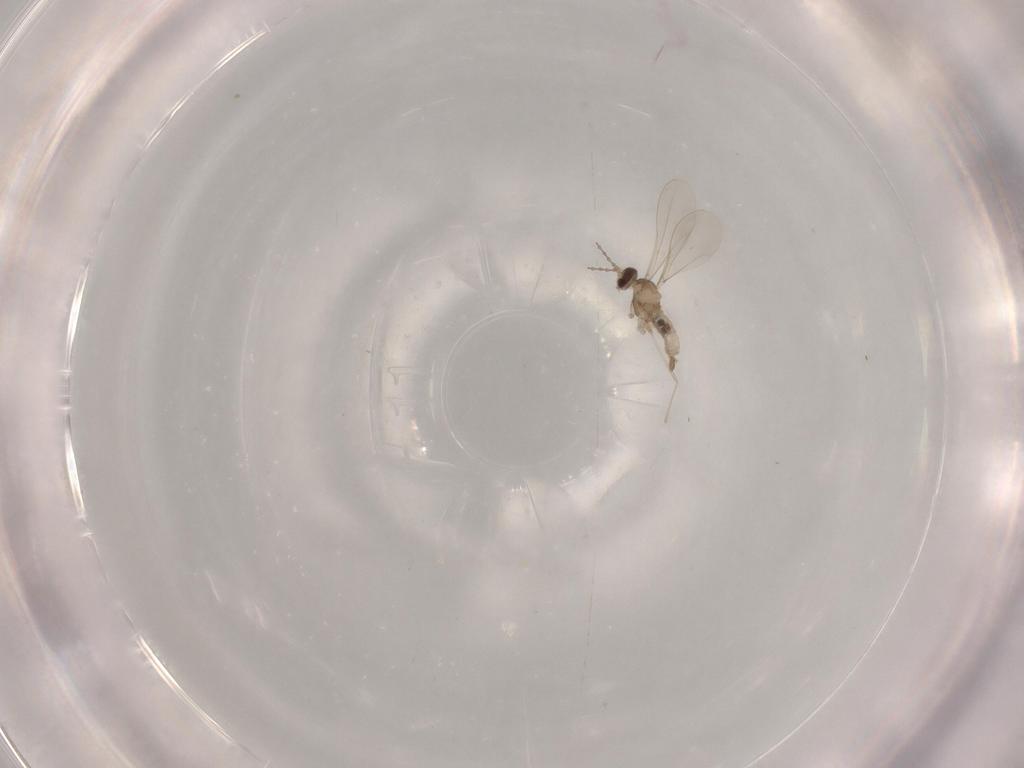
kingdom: Animalia
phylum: Arthropoda
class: Insecta
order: Diptera
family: Cecidomyiidae
